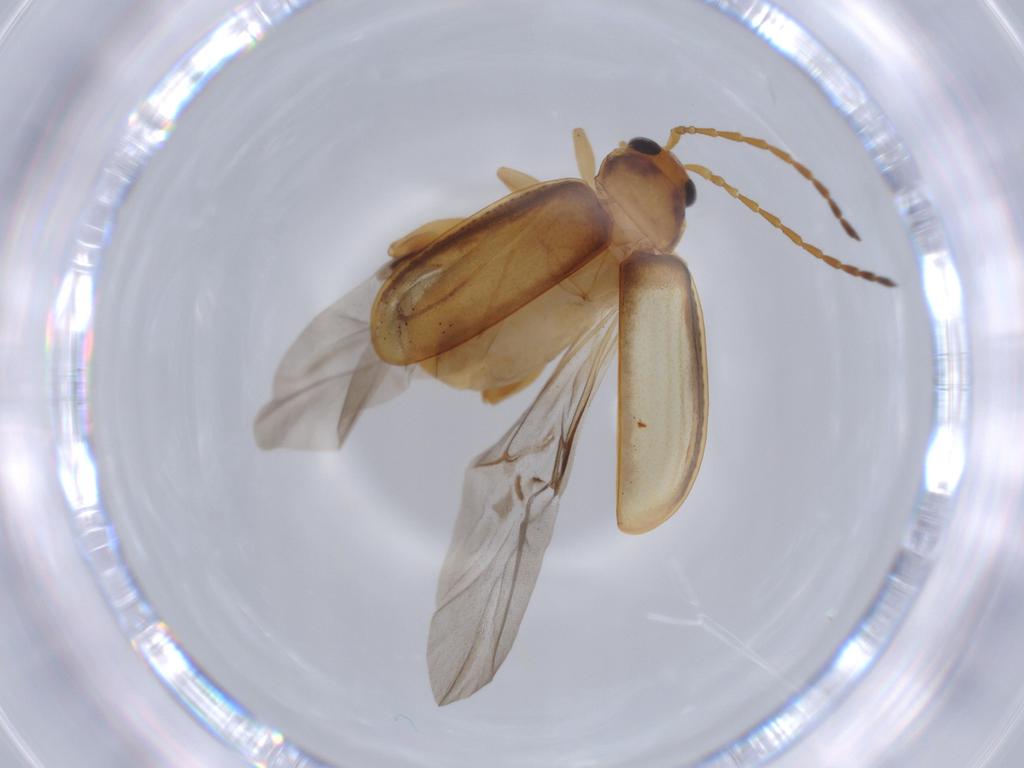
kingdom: Animalia
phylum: Arthropoda
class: Insecta
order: Coleoptera
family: Chrysomelidae
